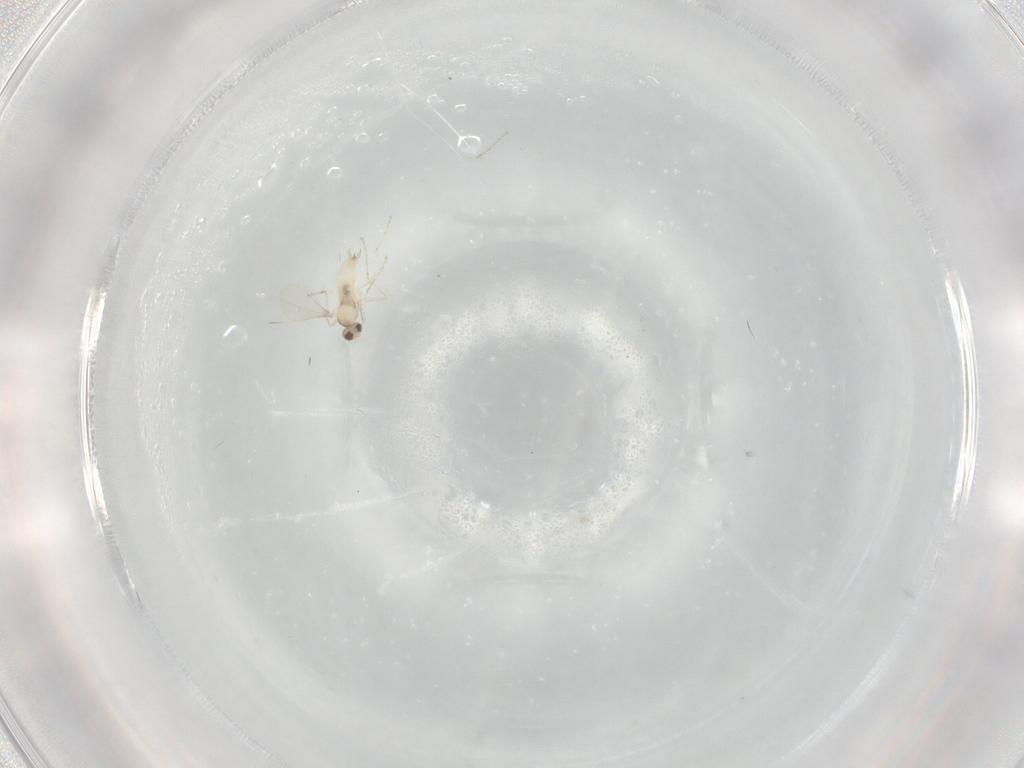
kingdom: Animalia
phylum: Arthropoda
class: Insecta
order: Diptera
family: Cecidomyiidae
